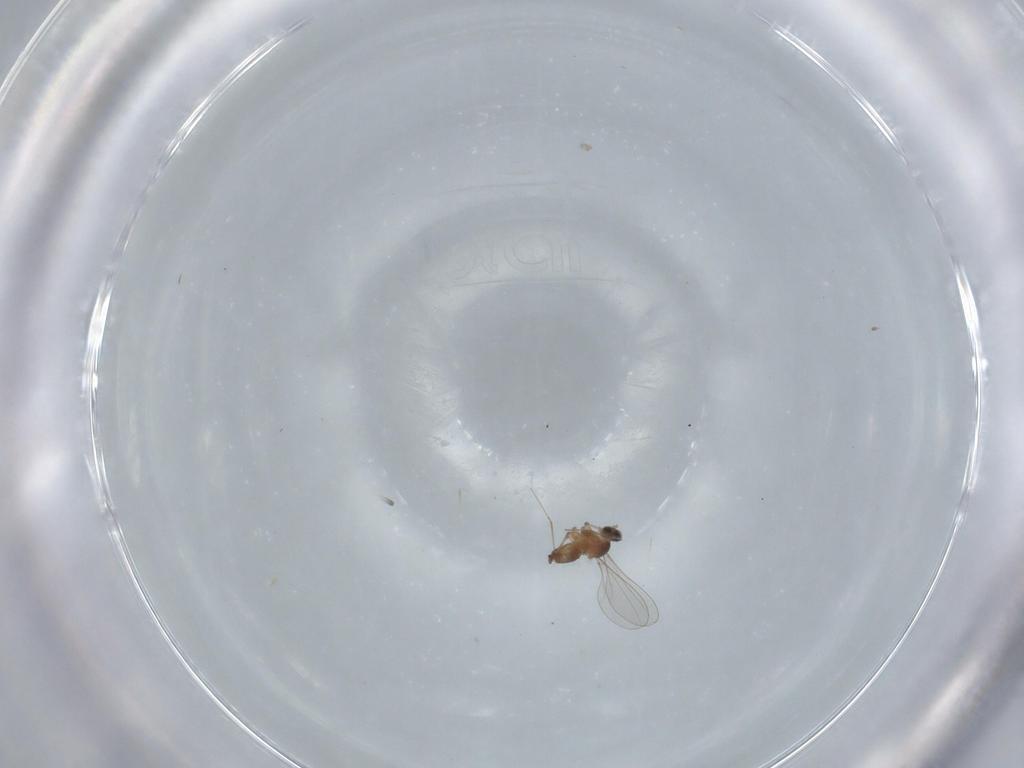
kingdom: Animalia
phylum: Arthropoda
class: Insecta
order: Diptera
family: Cecidomyiidae
